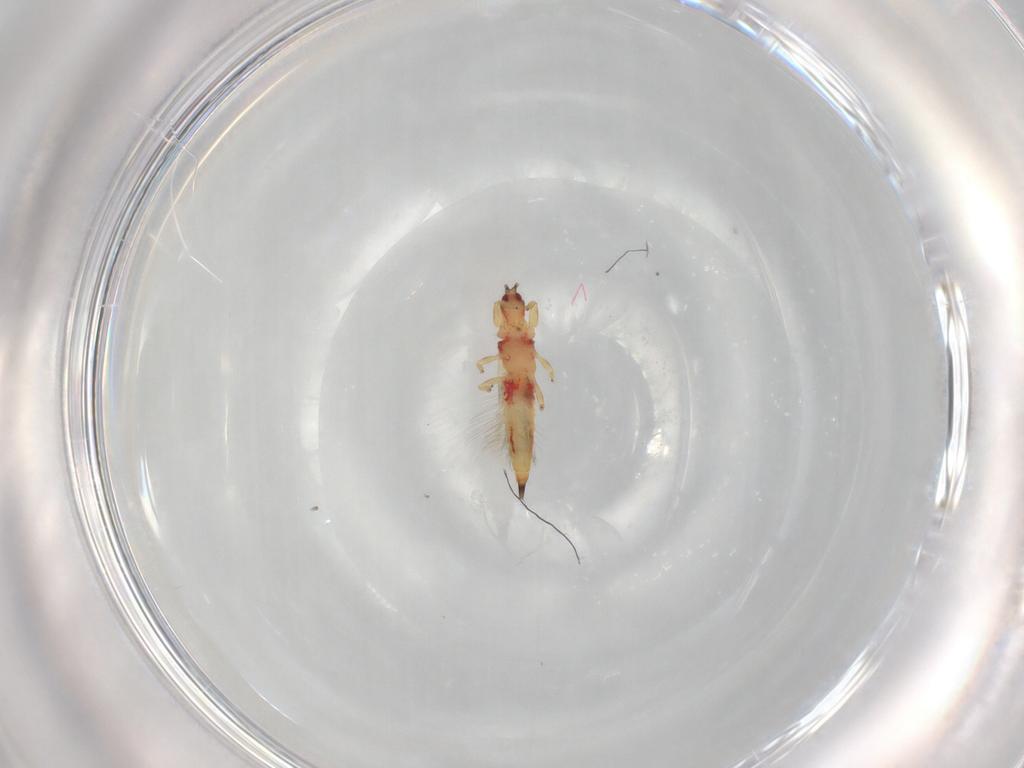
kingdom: Animalia
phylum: Arthropoda
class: Insecta
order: Thysanoptera
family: Phlaeothripidae
